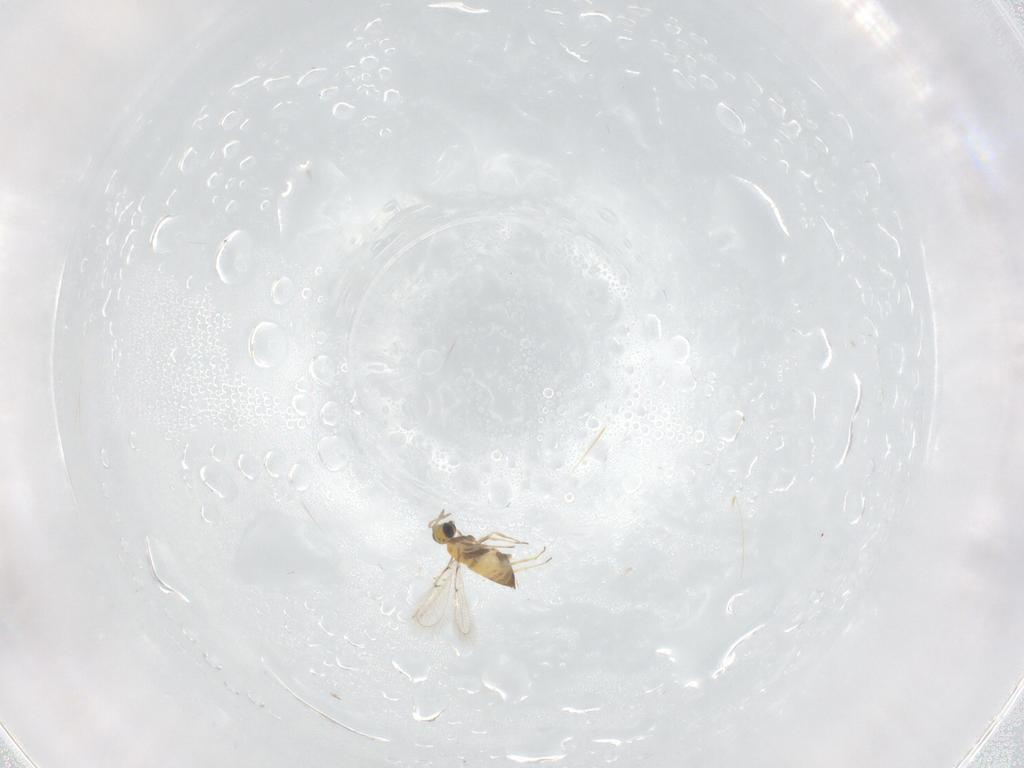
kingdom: Animalia
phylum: Arthropoda
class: Insecta
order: Hymenoptera
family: Trichogrammatidae
